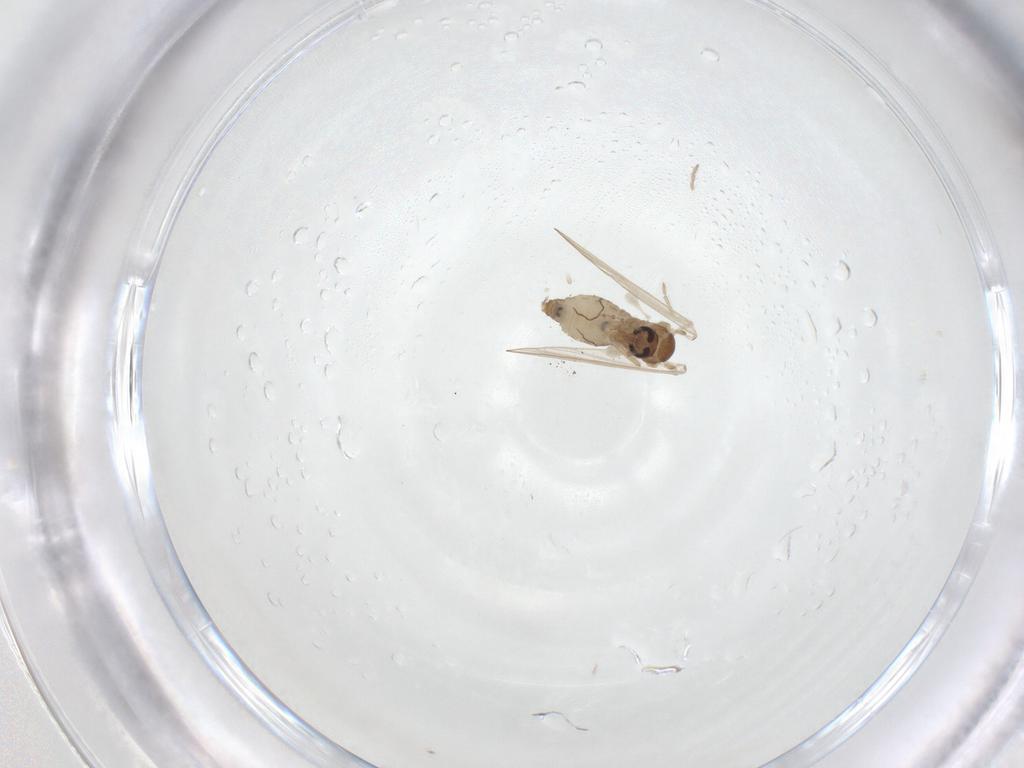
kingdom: Animalia
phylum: Arthropoda
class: Insecta
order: Diptera
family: Psychodidae
